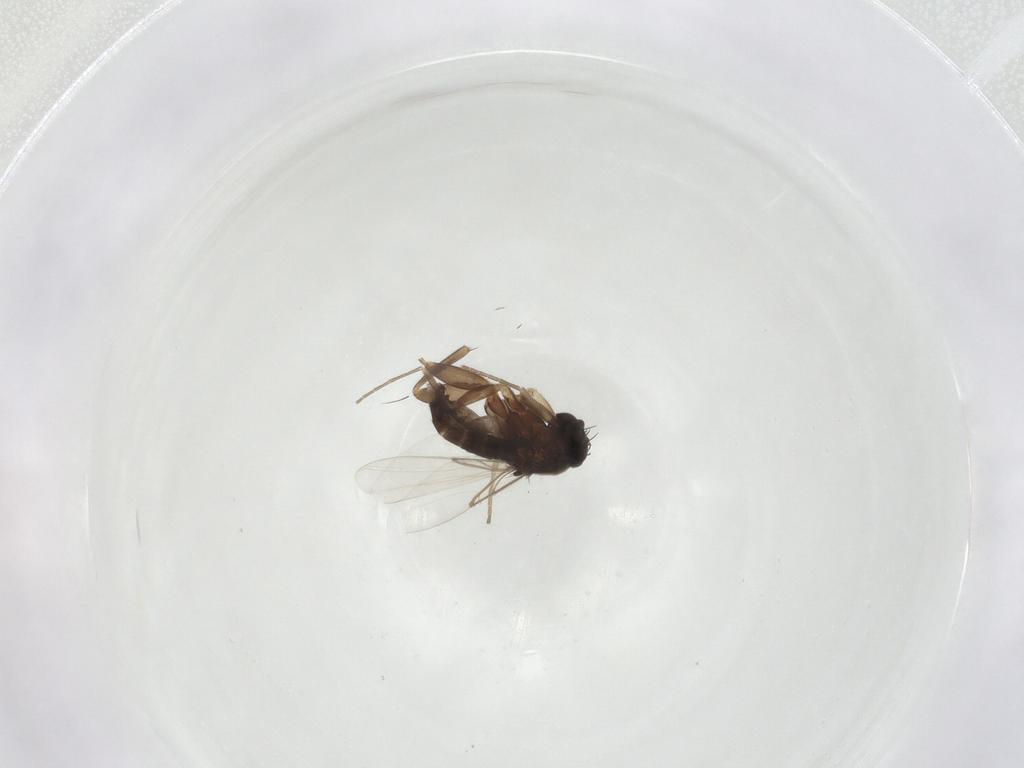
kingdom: Animalia
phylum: Arthropoda
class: Insecta
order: Diptera
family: Phoridae
